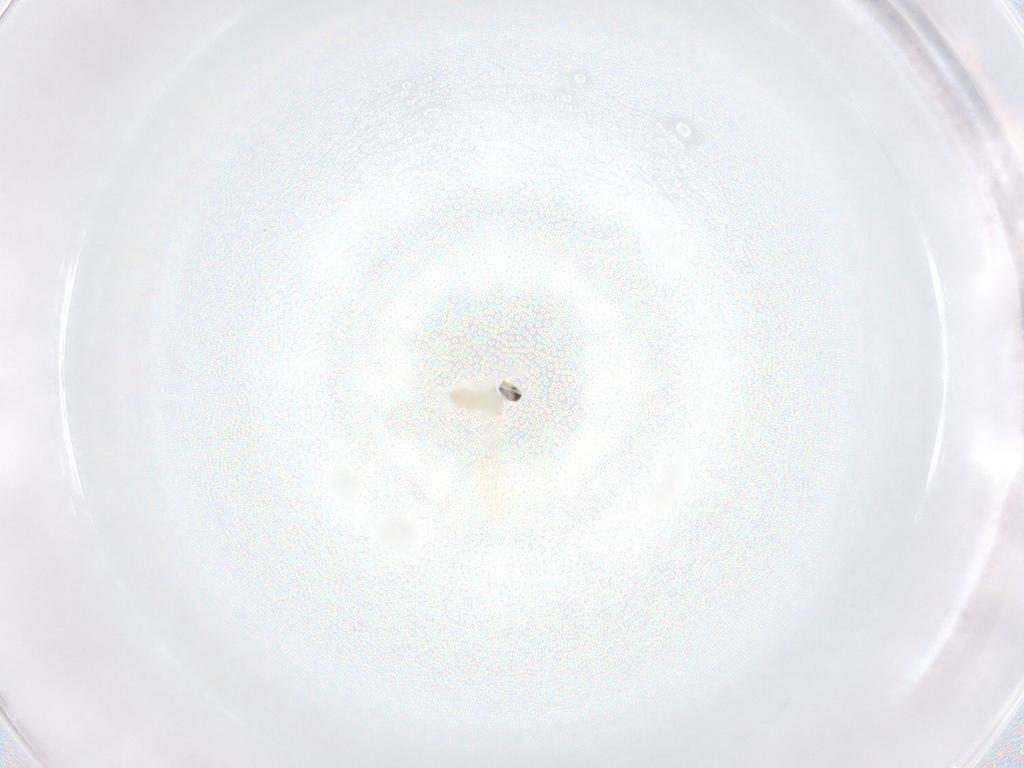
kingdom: Animalia
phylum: Arthropoda
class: Insecta
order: Diptera
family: Cecidomyiidae
